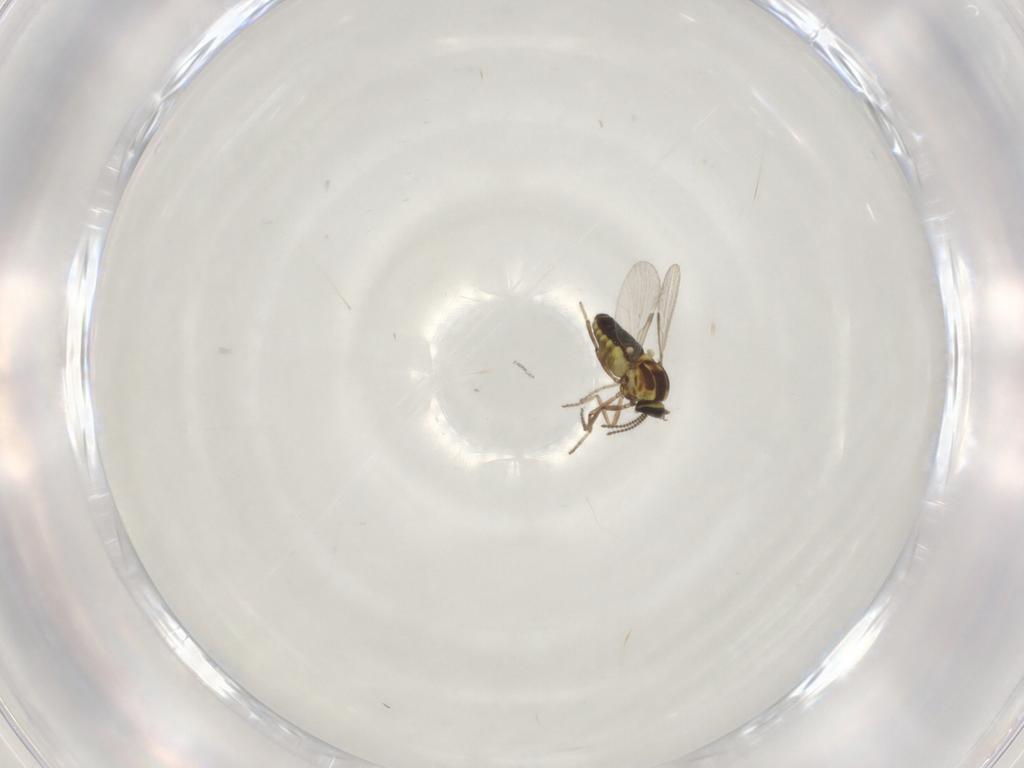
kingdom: Animalia
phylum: Arthropoda
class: Insecta
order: Diptera
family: Ceratopogonidae
